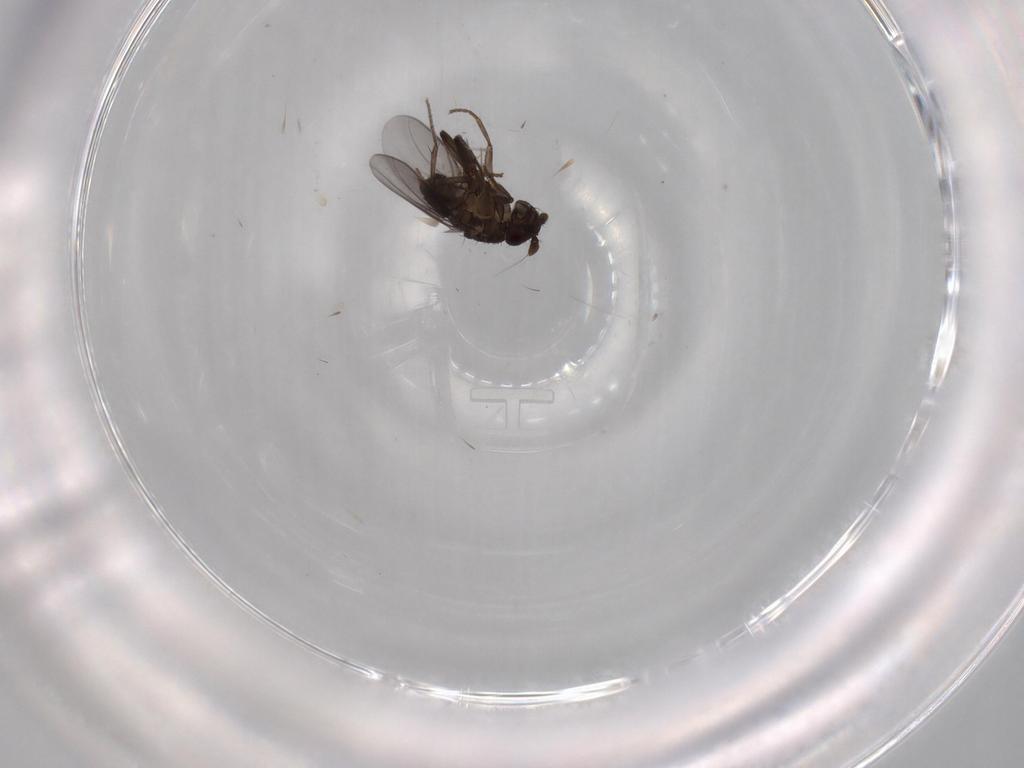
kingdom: Animalia
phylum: Arthropoda
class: Insecta
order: Diptera
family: Sphaeroceridae
